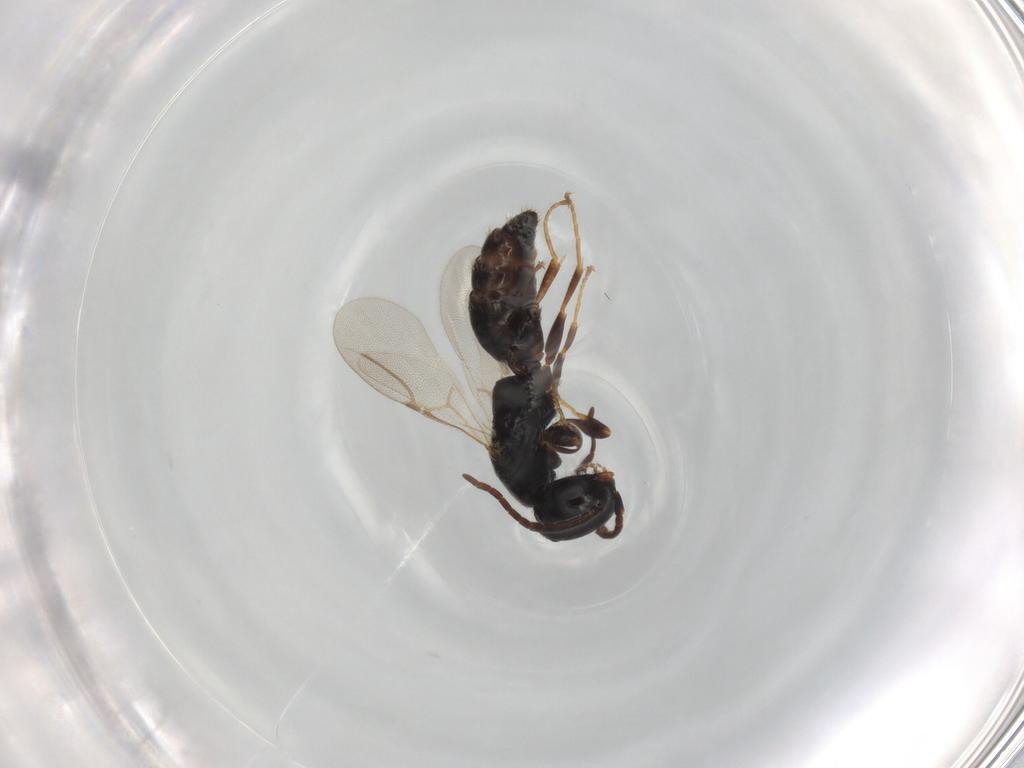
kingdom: Animalia
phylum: Arthropoda
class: Insecta
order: Hymenoptera
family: Bethylidae
